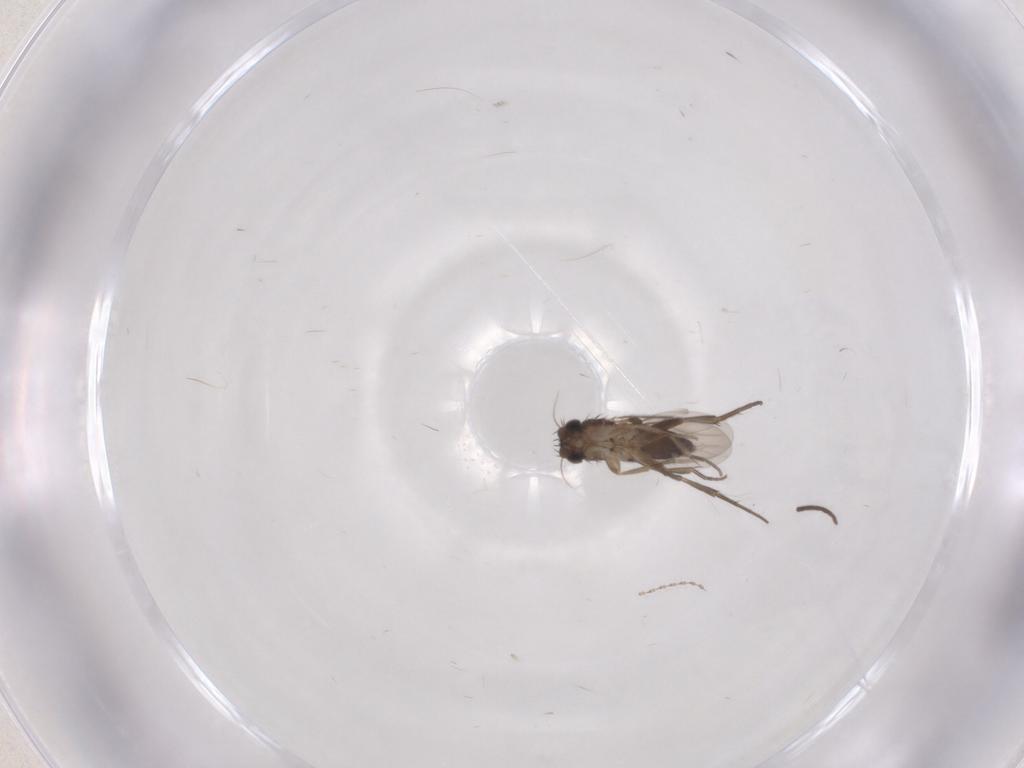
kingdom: Animalia
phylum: Arthropoda
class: Insecta
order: Diptera
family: Phoridae
